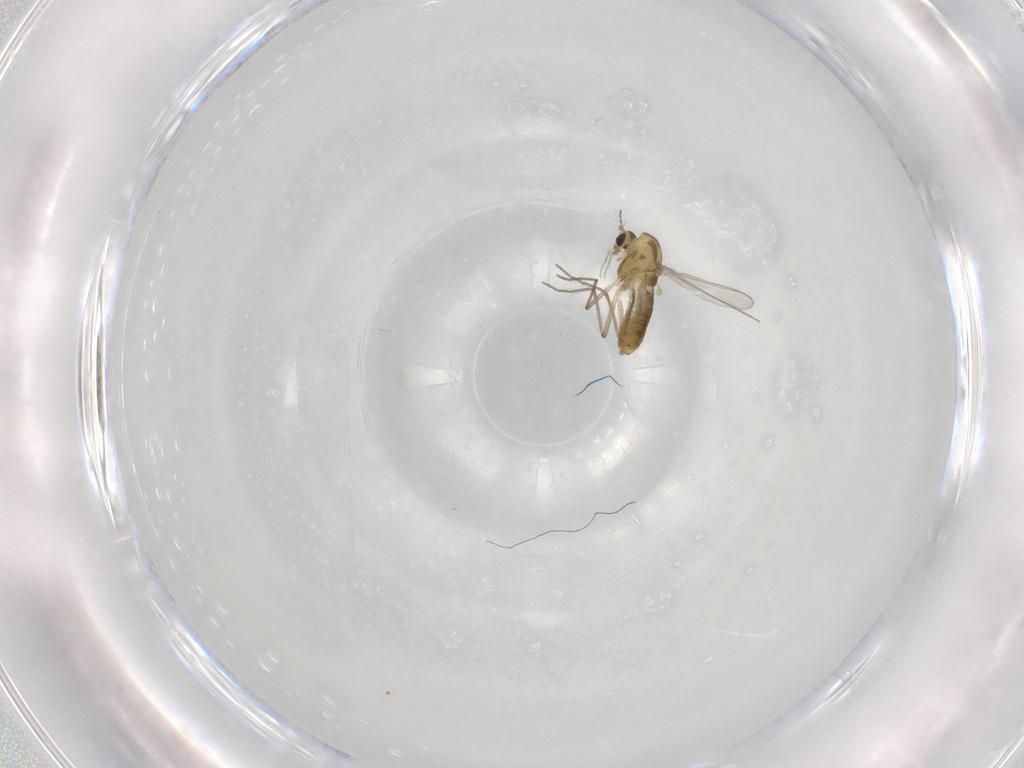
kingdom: Animalia
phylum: Arthropoda
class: Insecta
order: Diptera
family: Chironomidae
